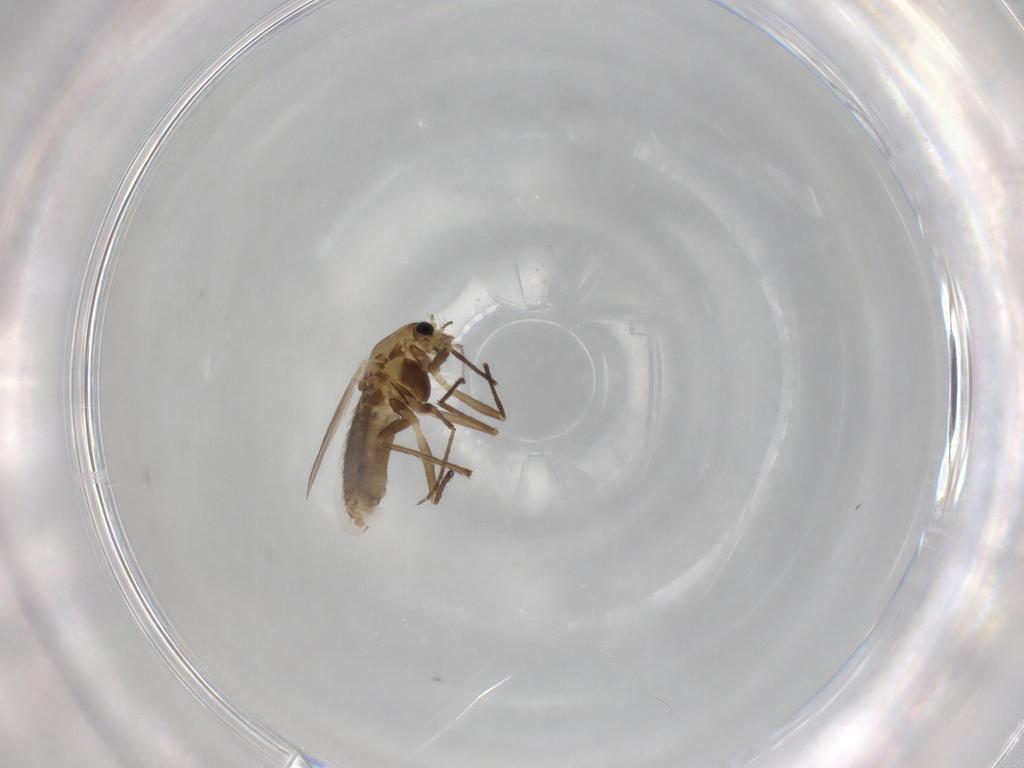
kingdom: Animalia
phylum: Arthropoda
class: Insecta
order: Diptera
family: Chironomidae
